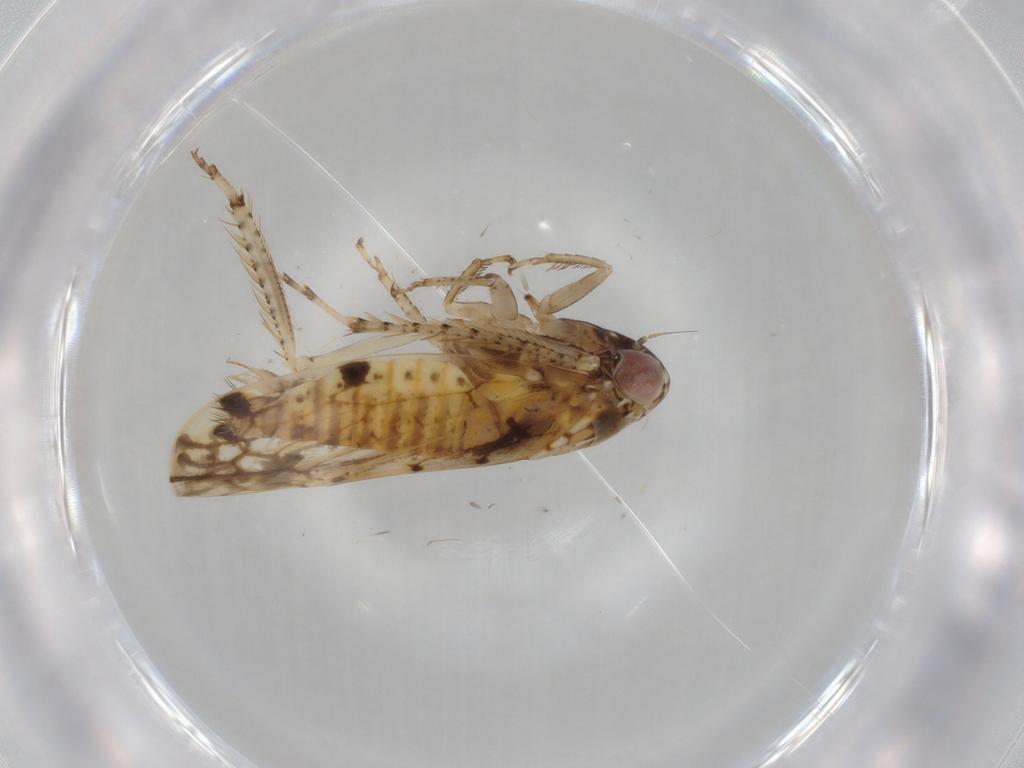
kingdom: Animalia
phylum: Arthropoda
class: Insecta
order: Hemiptera
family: Cicadellidae
